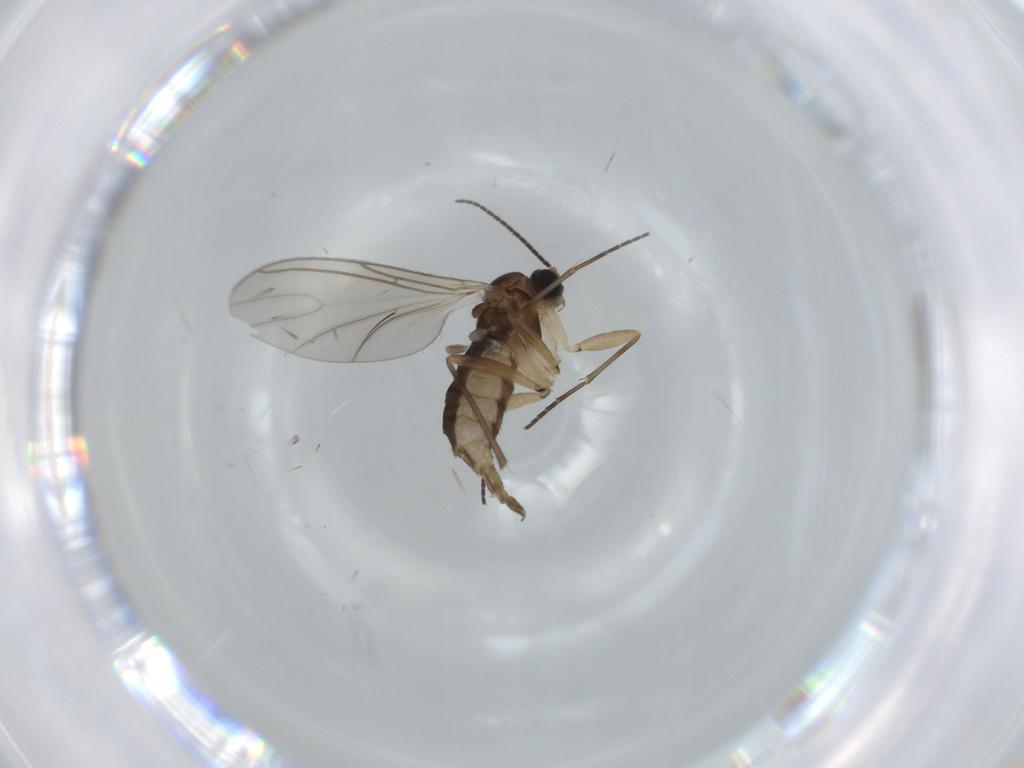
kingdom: Animalia
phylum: Arthropoda
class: Insecta
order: Diptera
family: Sciaridae
